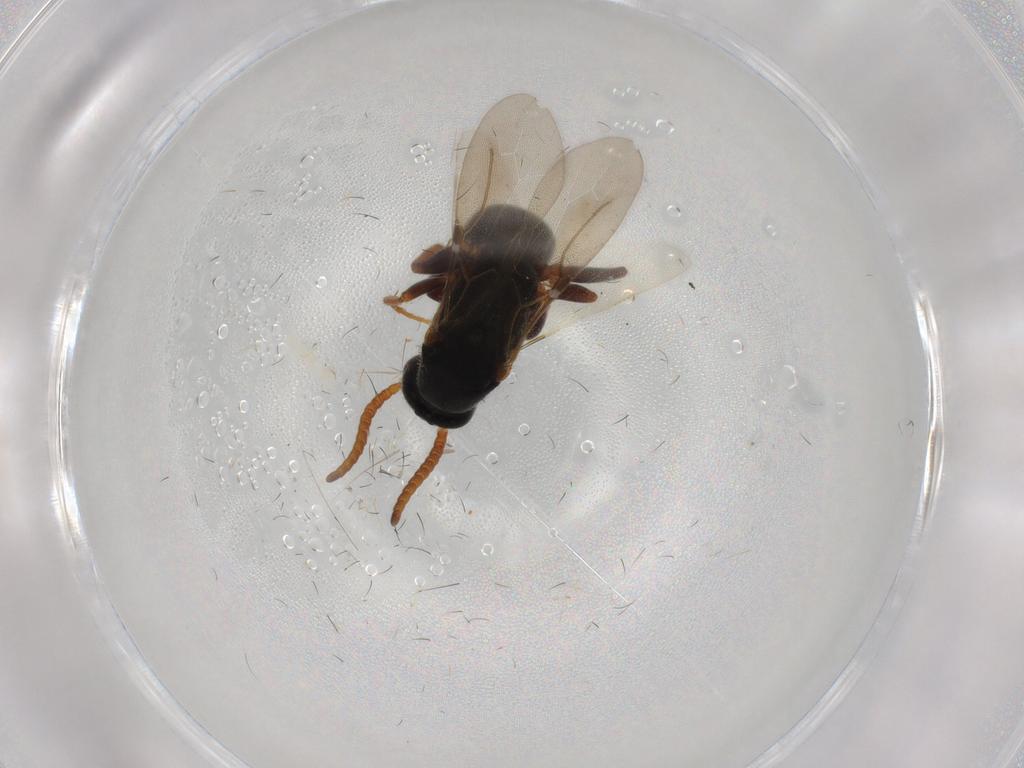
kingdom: Animalia
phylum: Arthropoda
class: Insecta
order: Hymenoptera
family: Bethylidae
